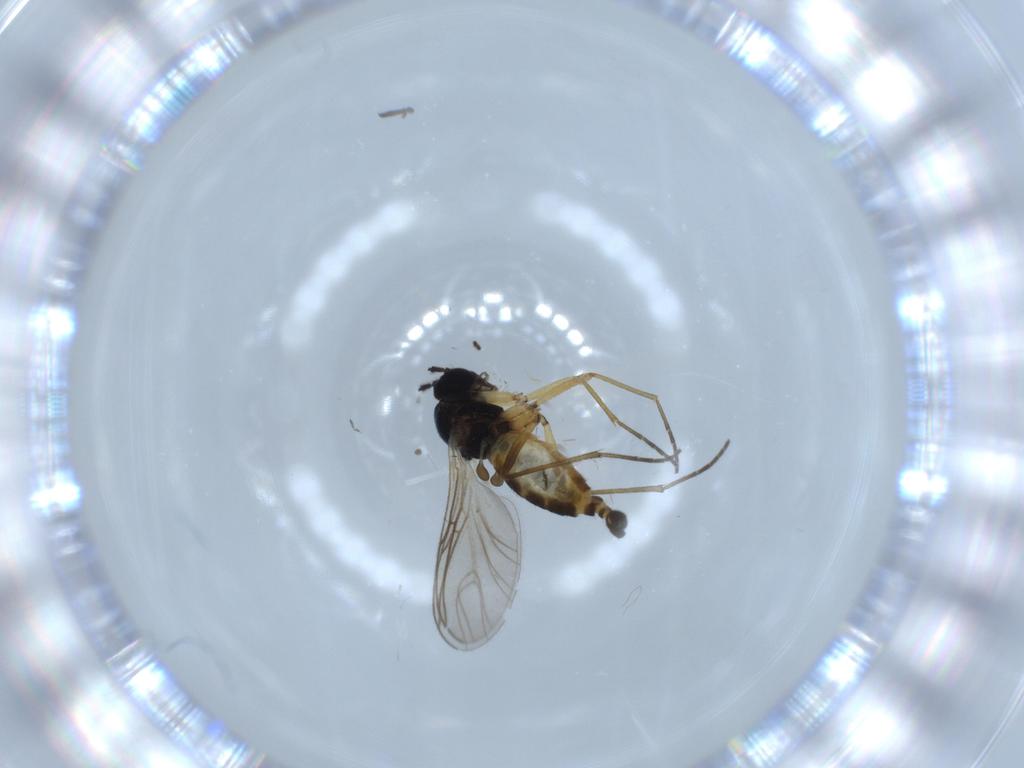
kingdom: Animalia
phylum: Arthropoda
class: Insecta
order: Diptera
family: Sciaridae
